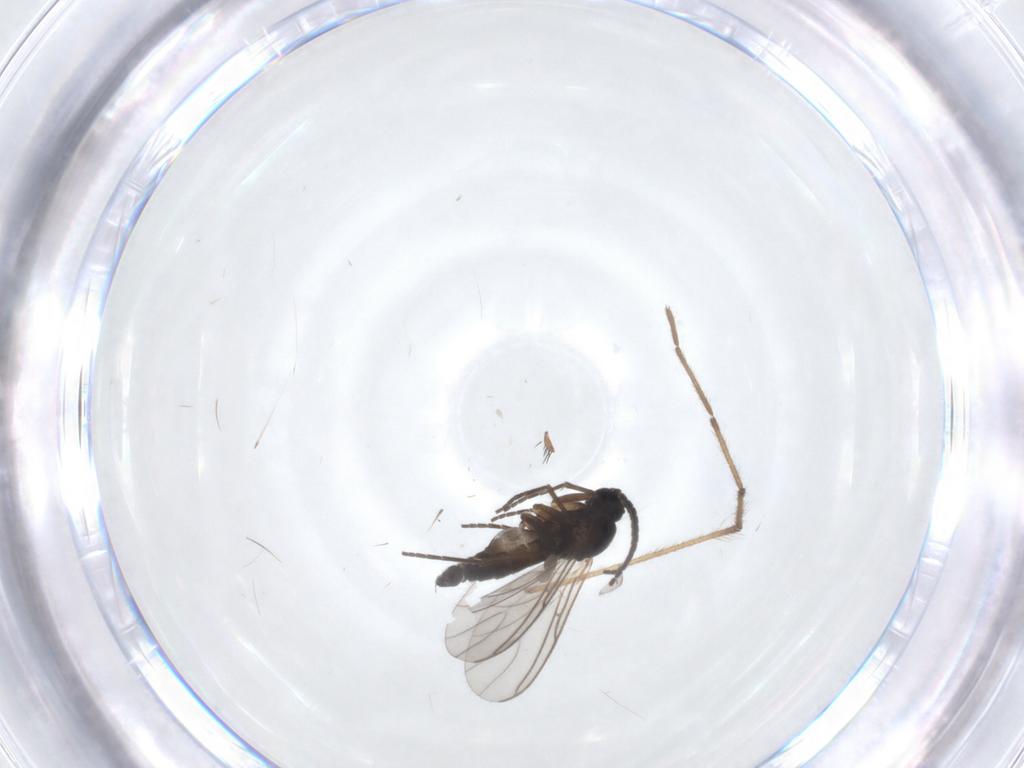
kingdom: Animalia
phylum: Arthropoda
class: Insecta
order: Diptera
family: Sciaridae
